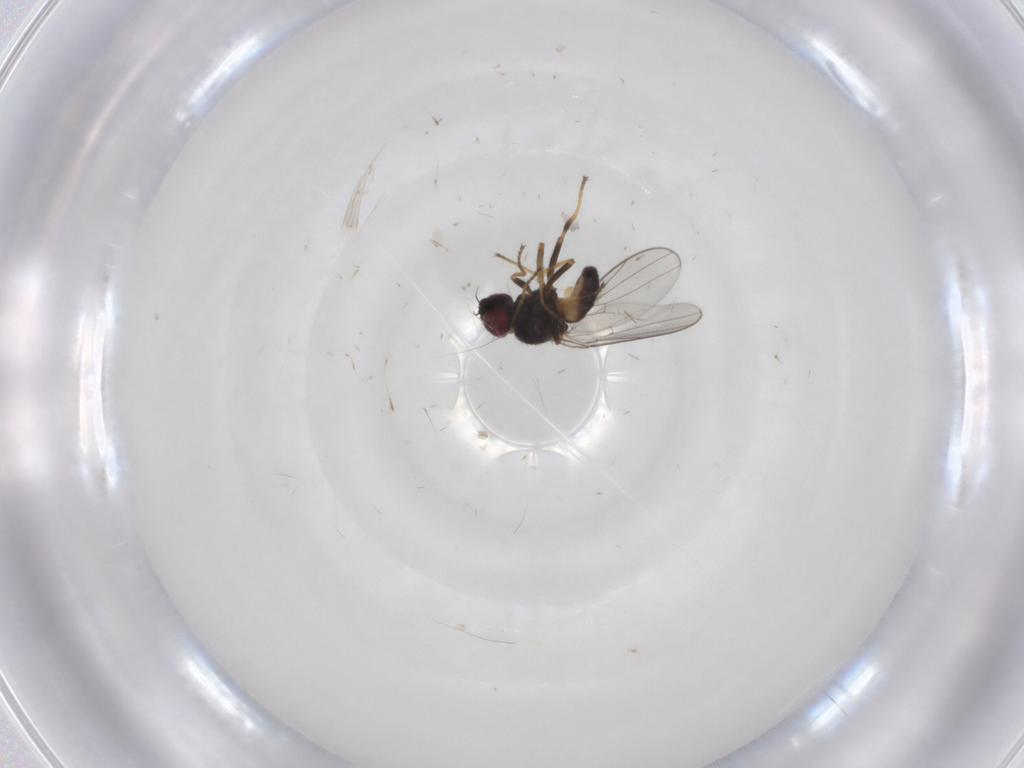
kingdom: Animalia
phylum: Arthropoda
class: Insecta
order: Diptera
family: Chloropidae
